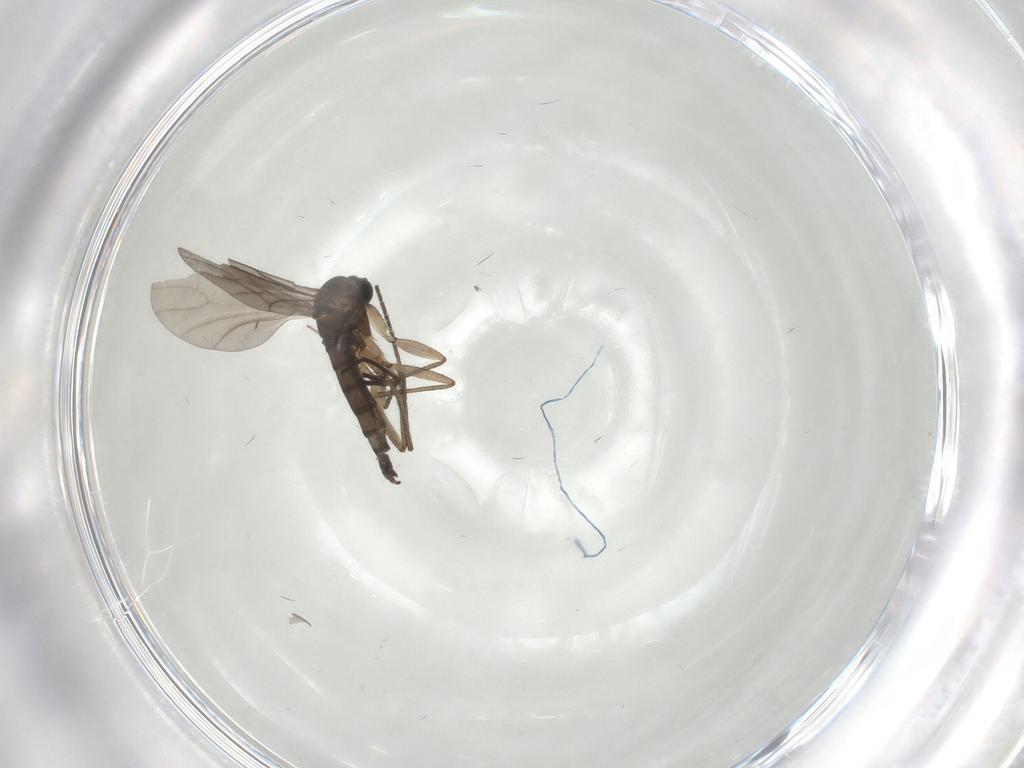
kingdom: Animalia
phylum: Arthropoda
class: Insecta
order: Diptera
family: Sciaridae
